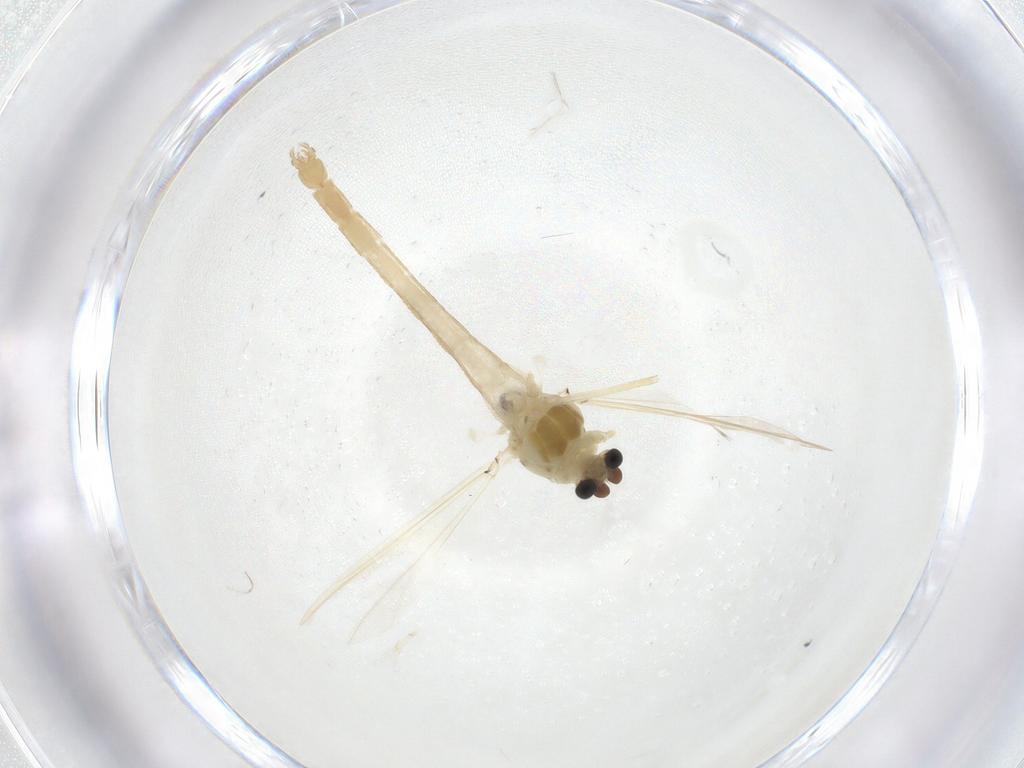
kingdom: Animalia
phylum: Arthropoda
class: Insecta
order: Diptera
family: Chironomidae
